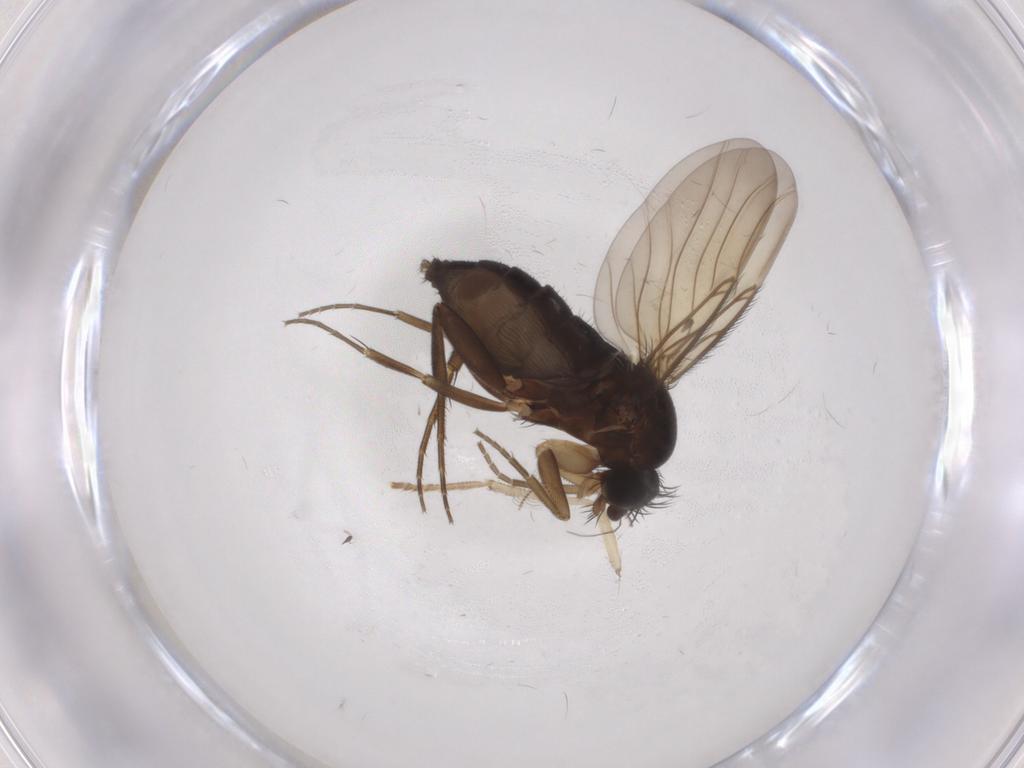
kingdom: Animalia
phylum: Arthropoda
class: Insecta
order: Diptera
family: Phoridae
